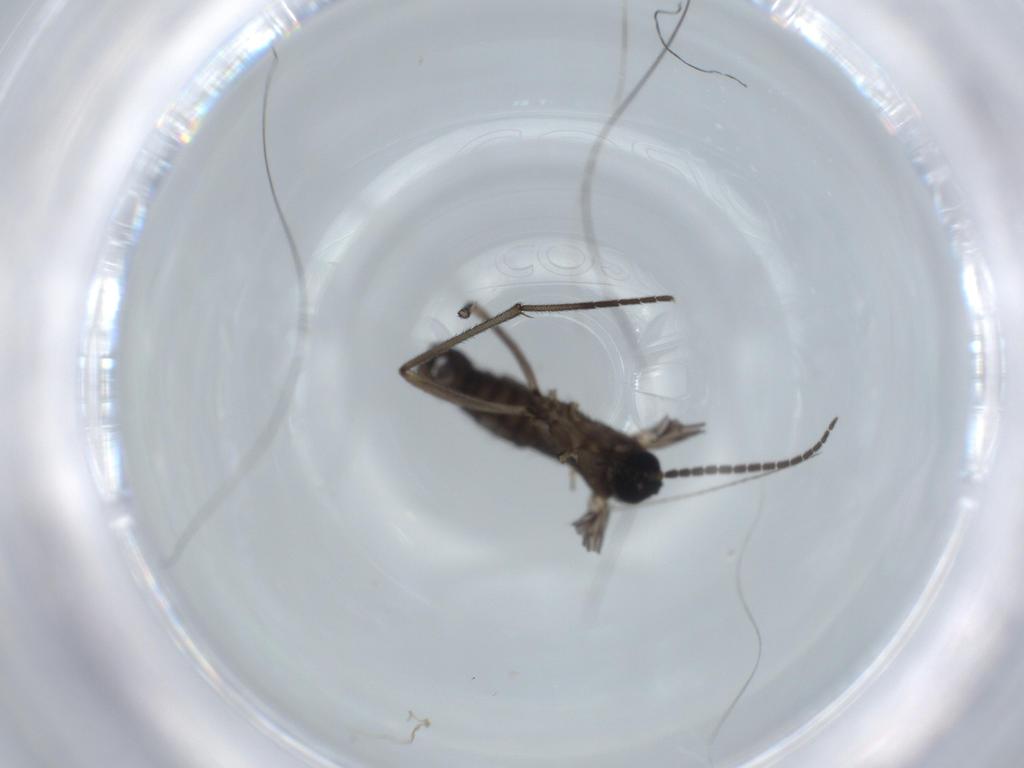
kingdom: Animalia
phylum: Arthropoda
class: Insecta
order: Diptera
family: Sciaridae
